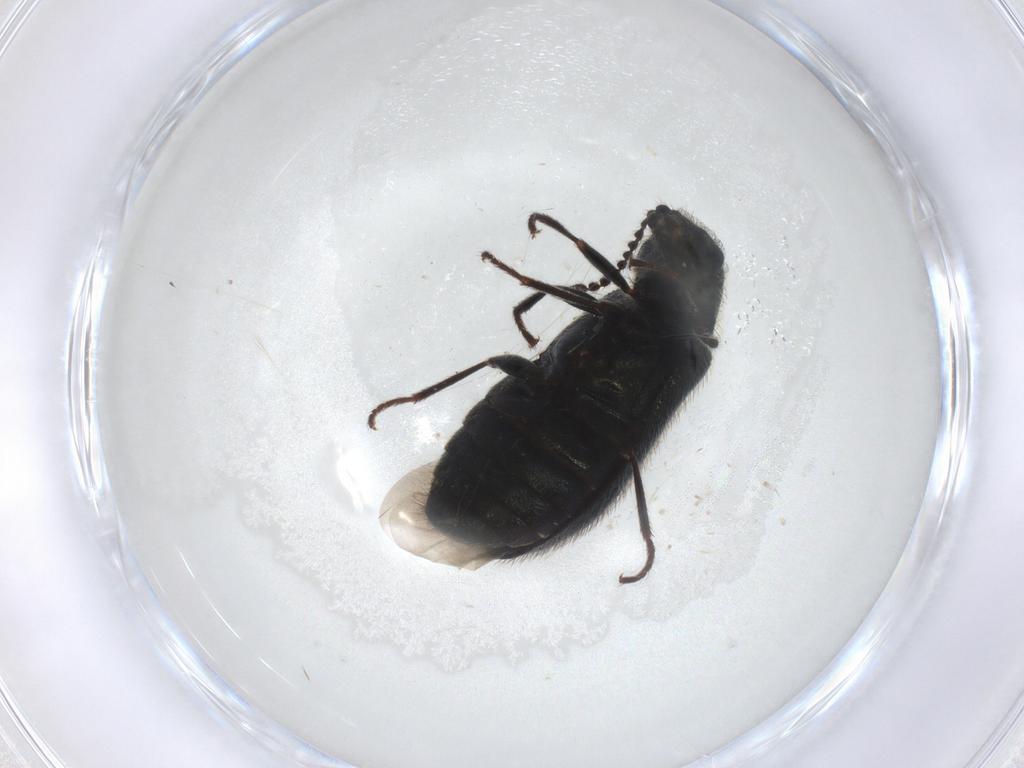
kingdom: Animalia
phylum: Arthropoda
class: Insecta
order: Coleoptera
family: Melyridae
